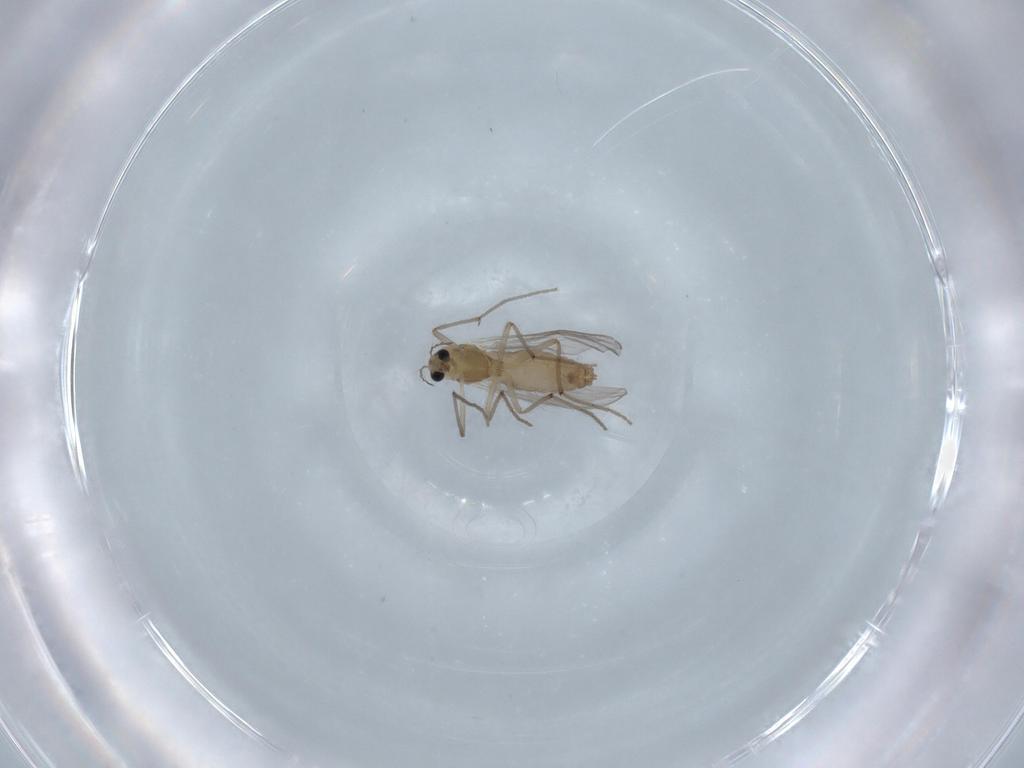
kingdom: Animalia
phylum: Arthropoda
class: Insecta
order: Diptera
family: Chironomidae
